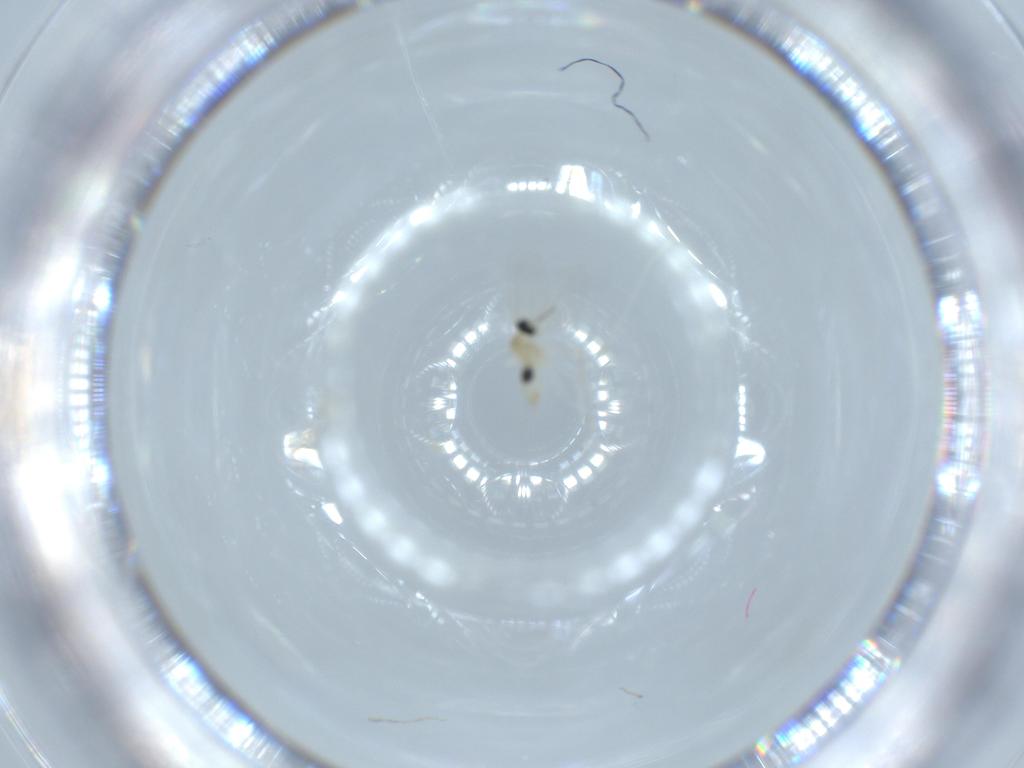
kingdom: Animalia
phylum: Arthropoda
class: Insecta
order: Diptera
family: Cecidomyiidae
